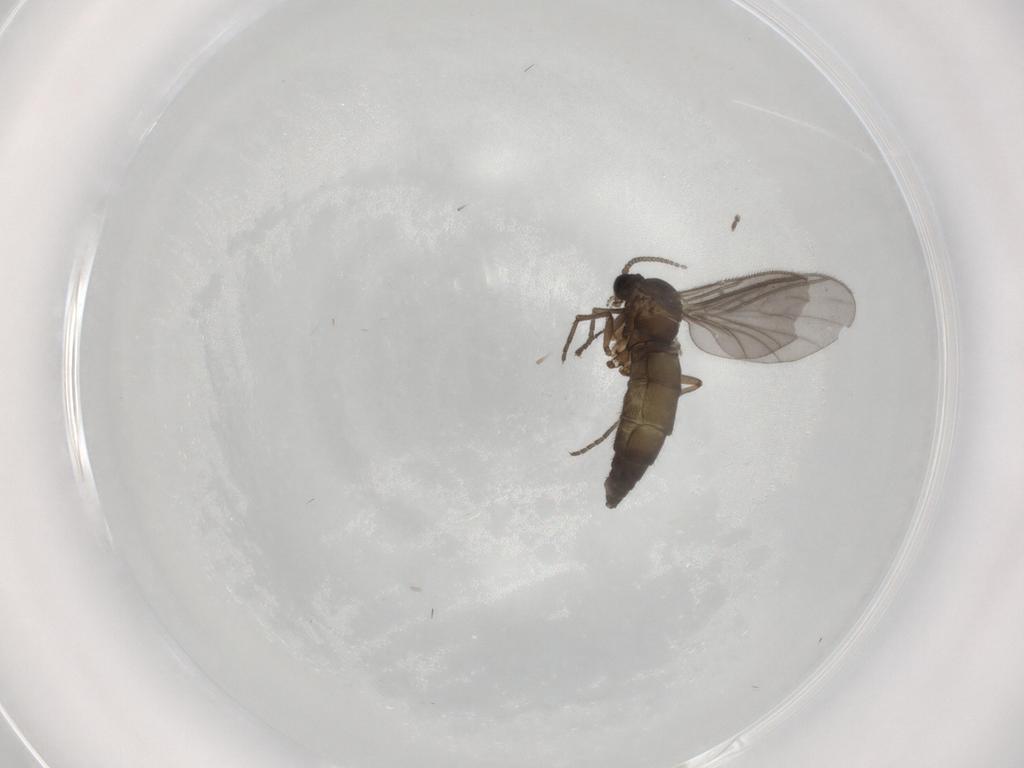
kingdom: Animalia
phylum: Arthropoda
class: Insecta
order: Diptera
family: Sciaridae
